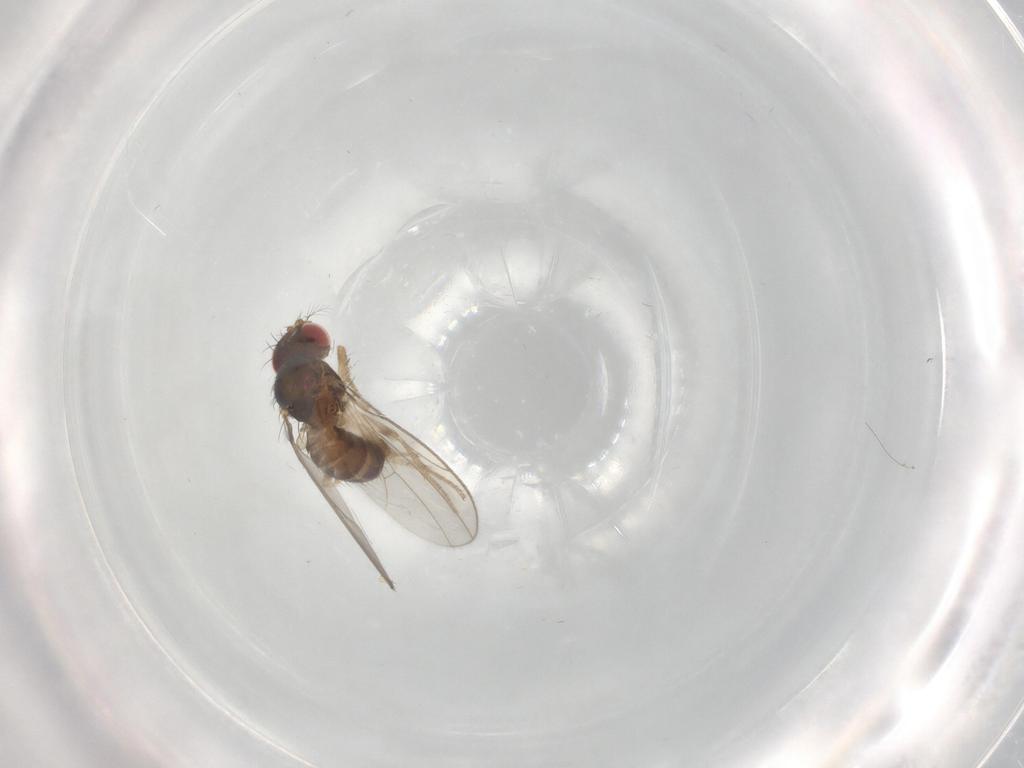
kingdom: Animalia
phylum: Arthropoda
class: Insecta
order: Diptera
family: Drosophilidae
